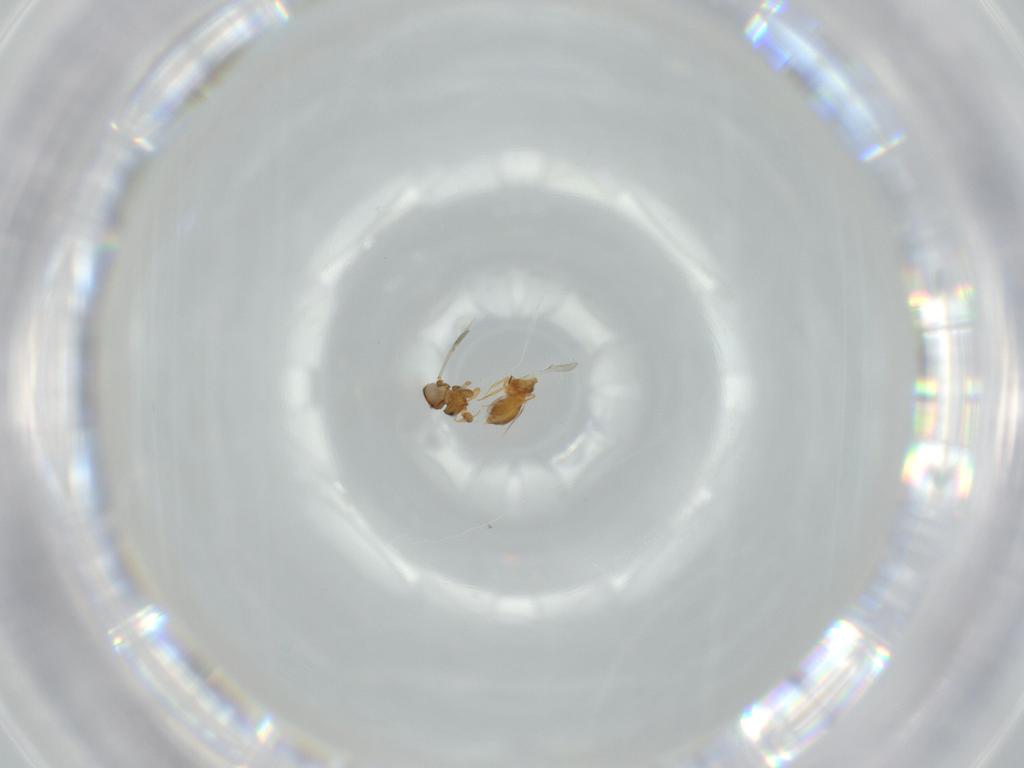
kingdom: Animalia
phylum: Arthropoda
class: Insecta
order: Hymenoptera
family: Scelionidae
